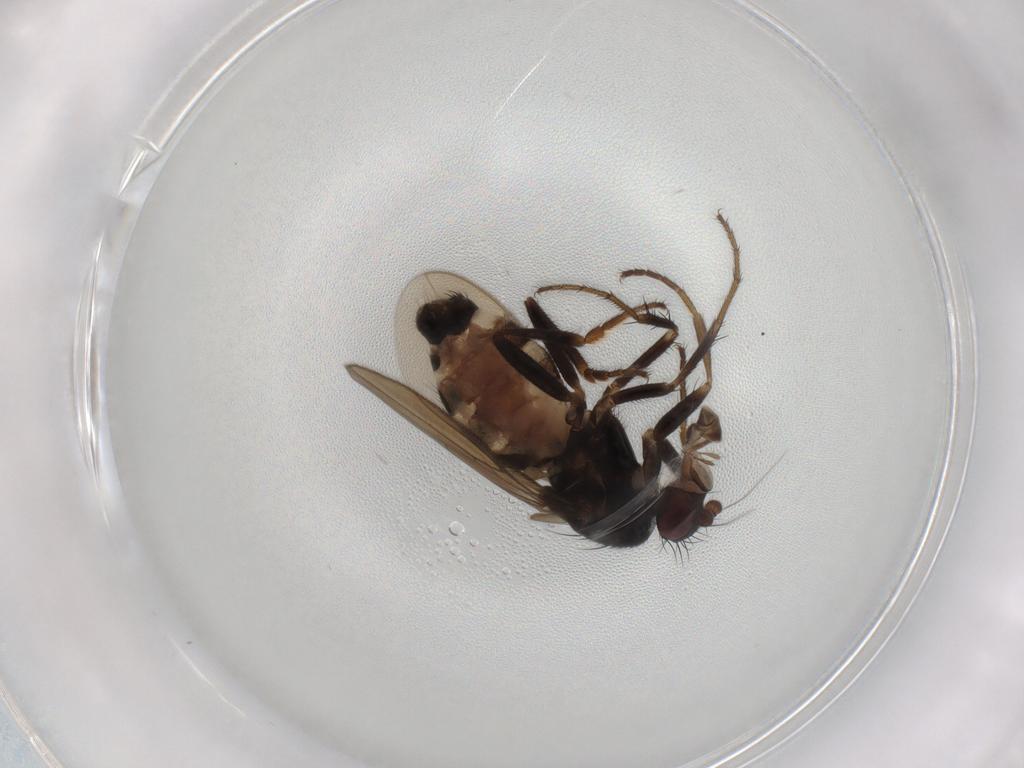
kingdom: Animalia
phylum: Arthropoda
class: Insecta
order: Diptera
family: Sphaeroceridae
